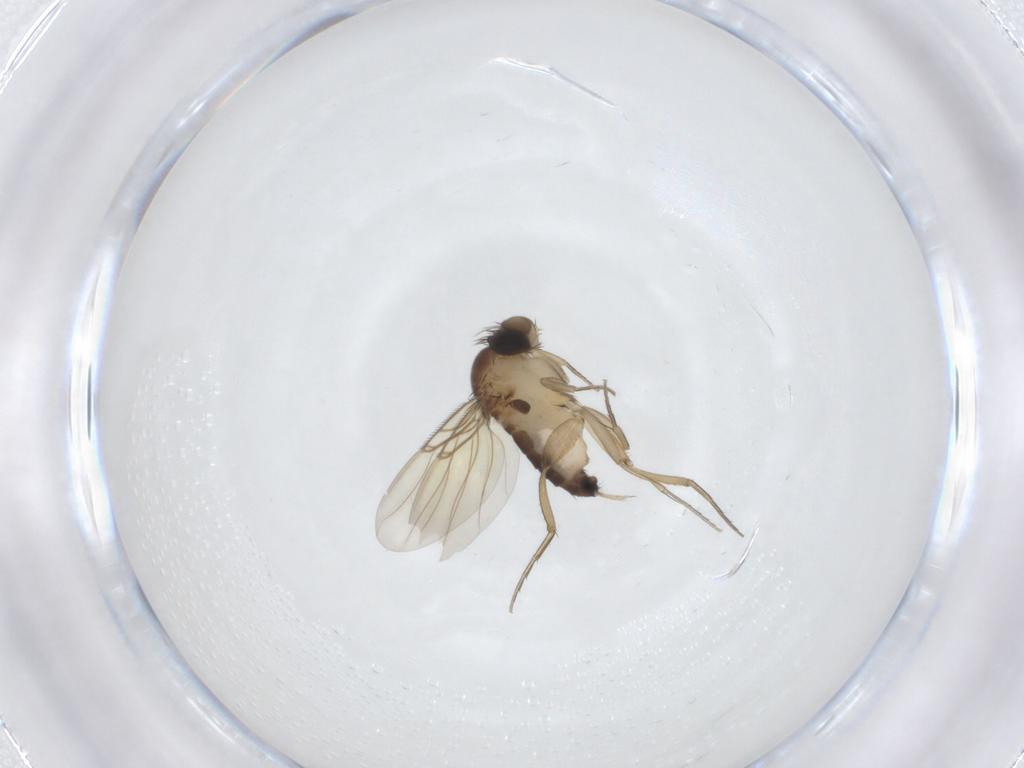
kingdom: Animalia
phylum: Arthropoda
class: Insecta
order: Diptera
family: Phoridae
